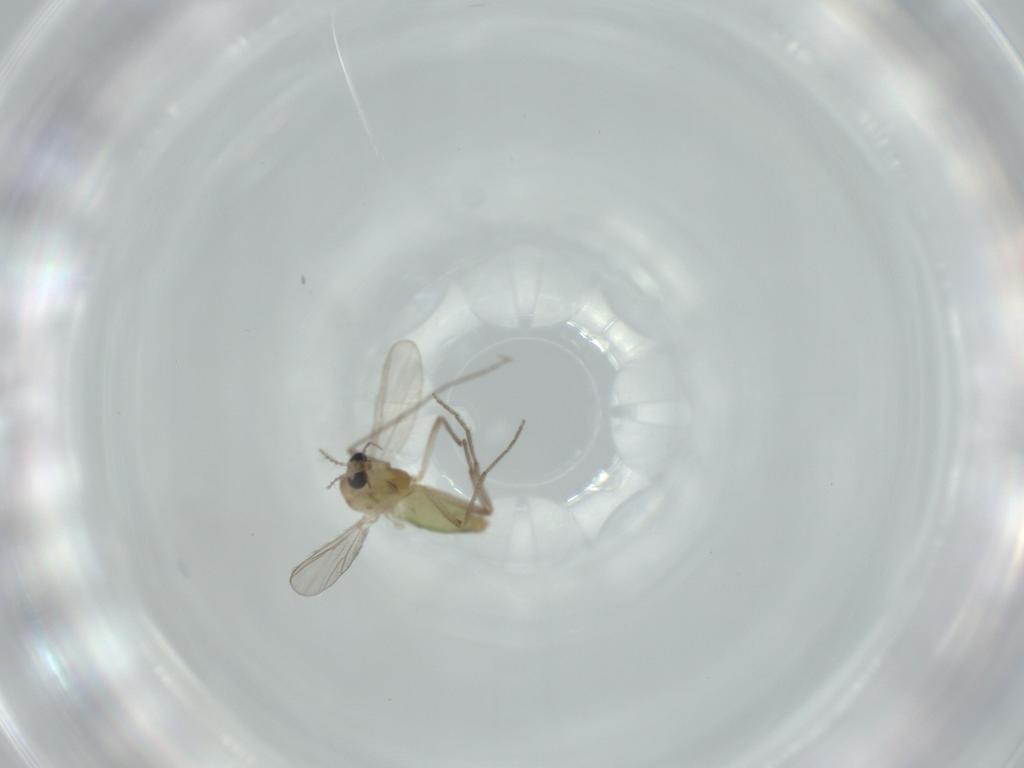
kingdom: Animalia
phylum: Arthropoda
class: Insecta
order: Diptera
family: Chironomidae
